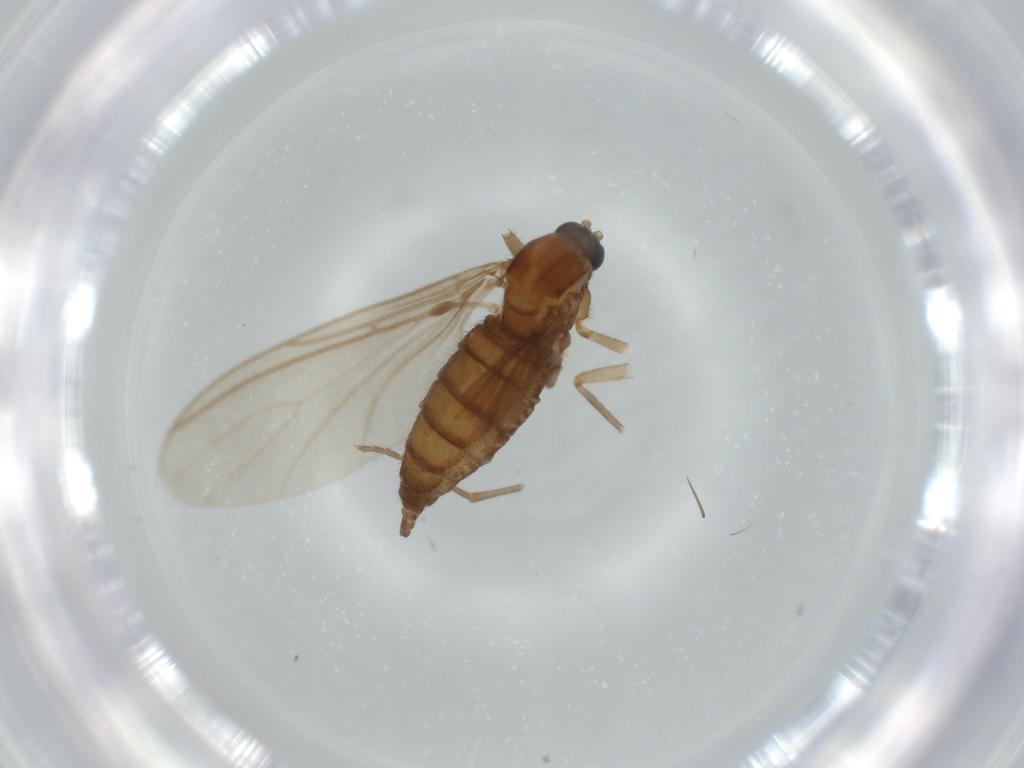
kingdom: Animalia
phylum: Arthropoda
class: Insecta
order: Diptera
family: Sciaridae
